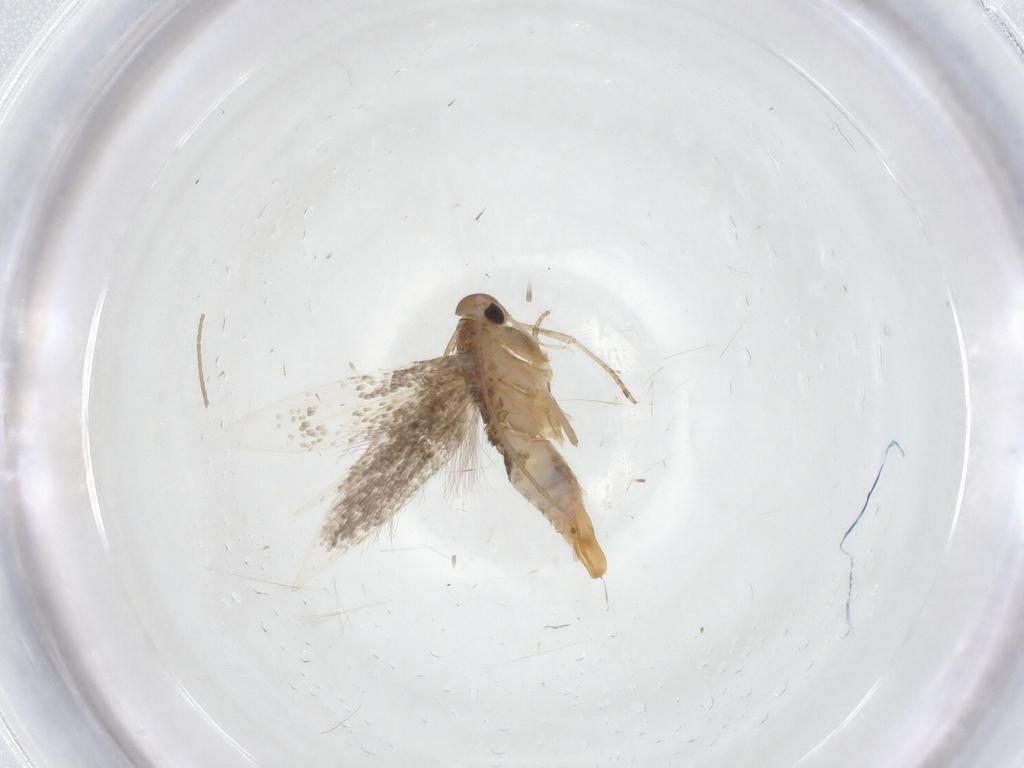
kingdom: Animalia
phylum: Arthropoda
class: Insecta
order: Lepidoptera
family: Elachistidae
